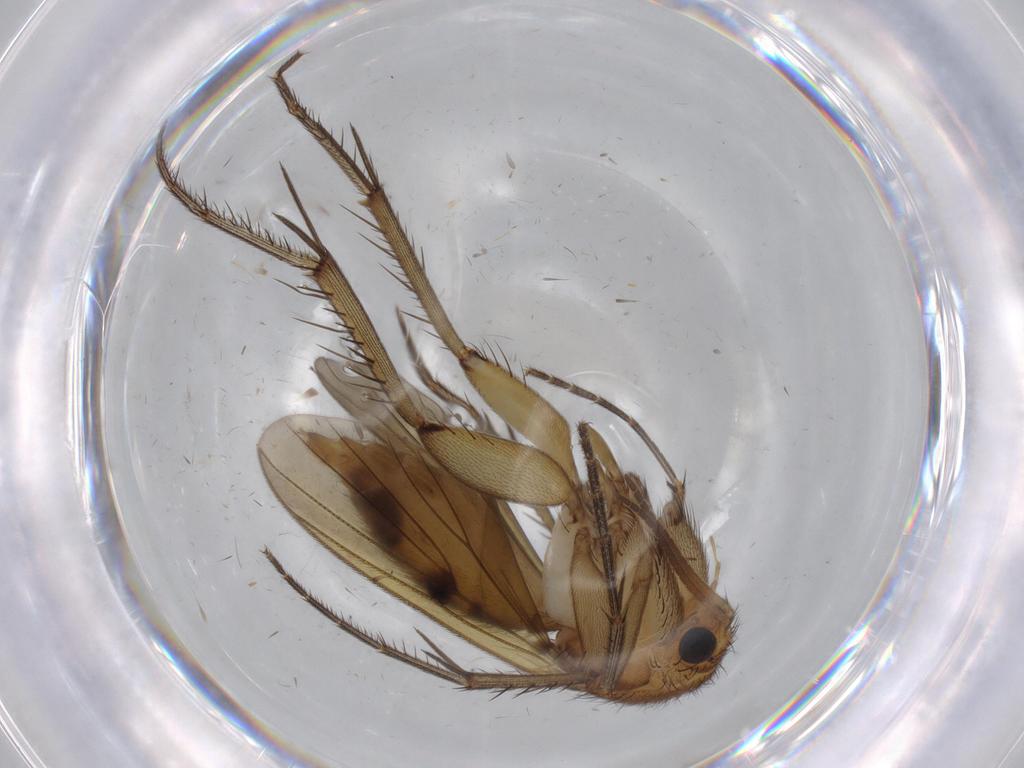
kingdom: Animalia
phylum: Arthropoda
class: Insecta
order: Diptera
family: Mycetophilidae
